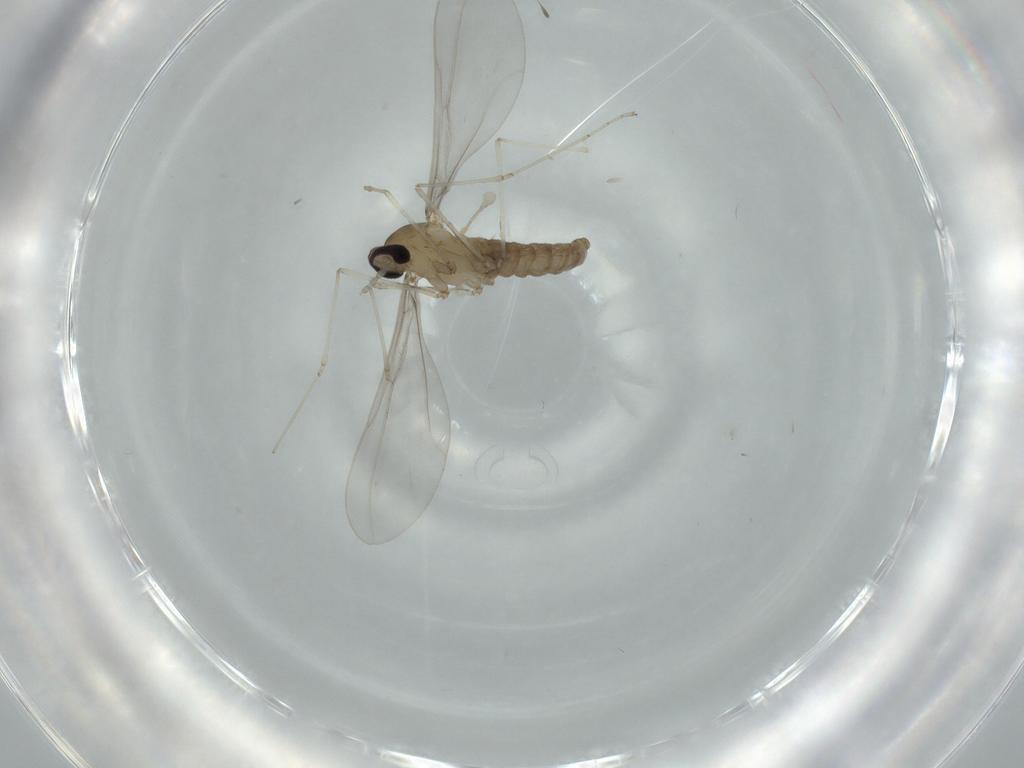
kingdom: Animalia
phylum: Arthropoda
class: Insecta
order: Diptera
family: Cecidomyiidae
